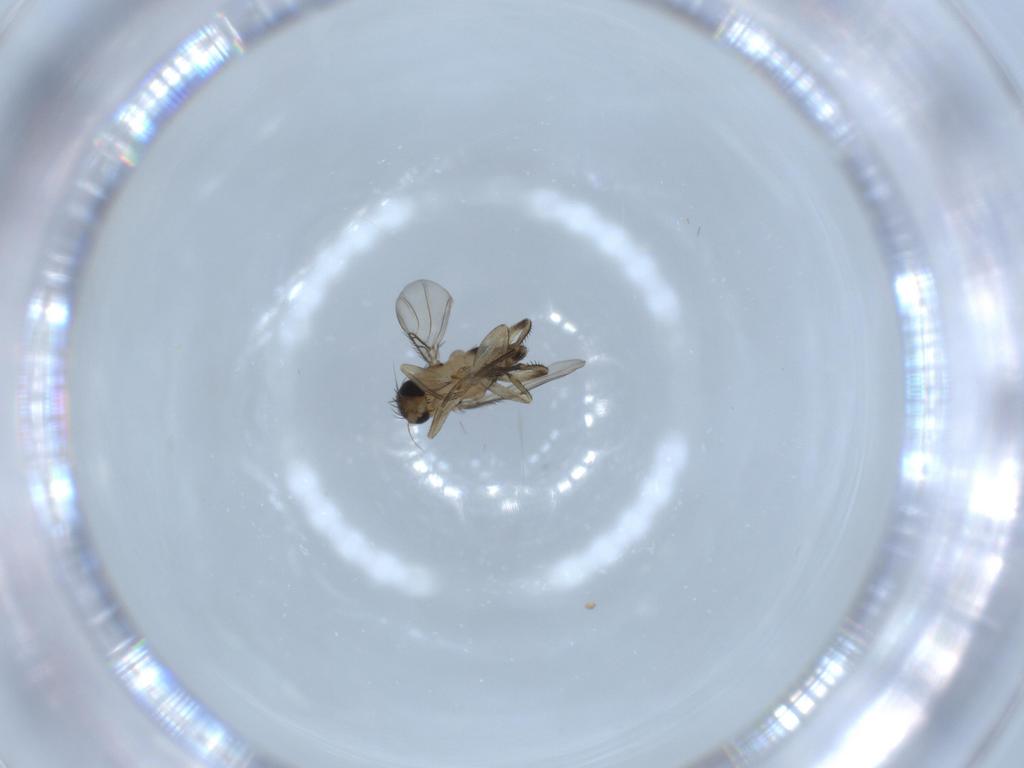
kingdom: Animalia
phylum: Arthropoda
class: Insecta
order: Diptera
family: Phoridae
